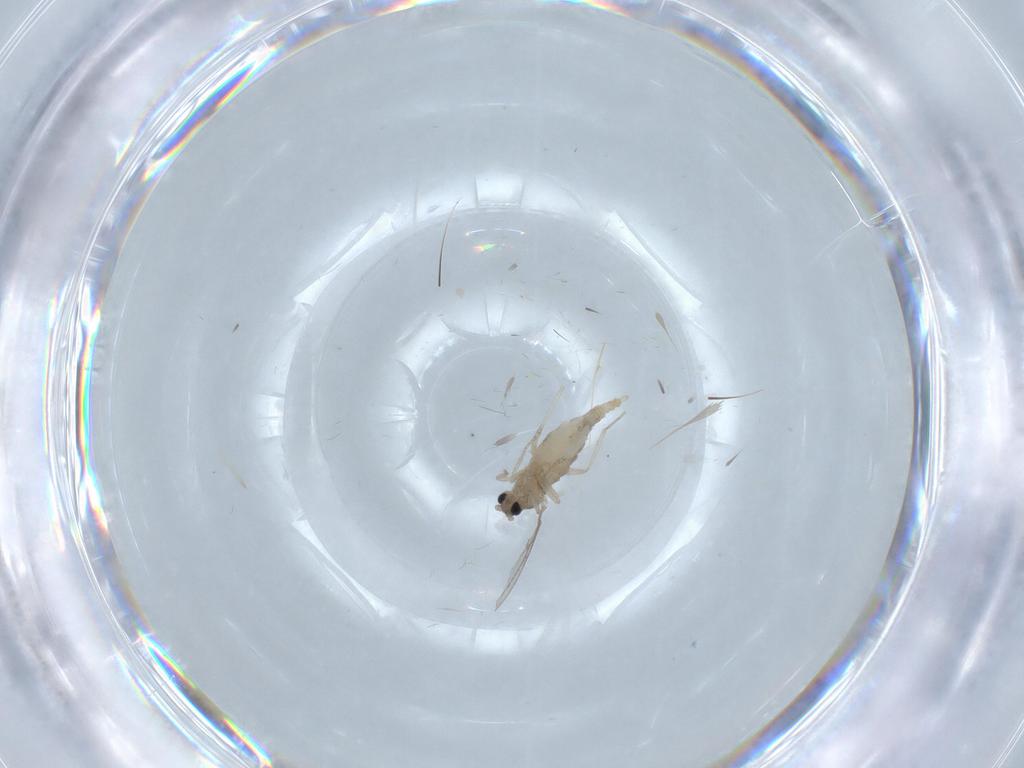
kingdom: Animalia
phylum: Arthropoda
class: Insecta
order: Diptera
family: Cecidomyiidae
